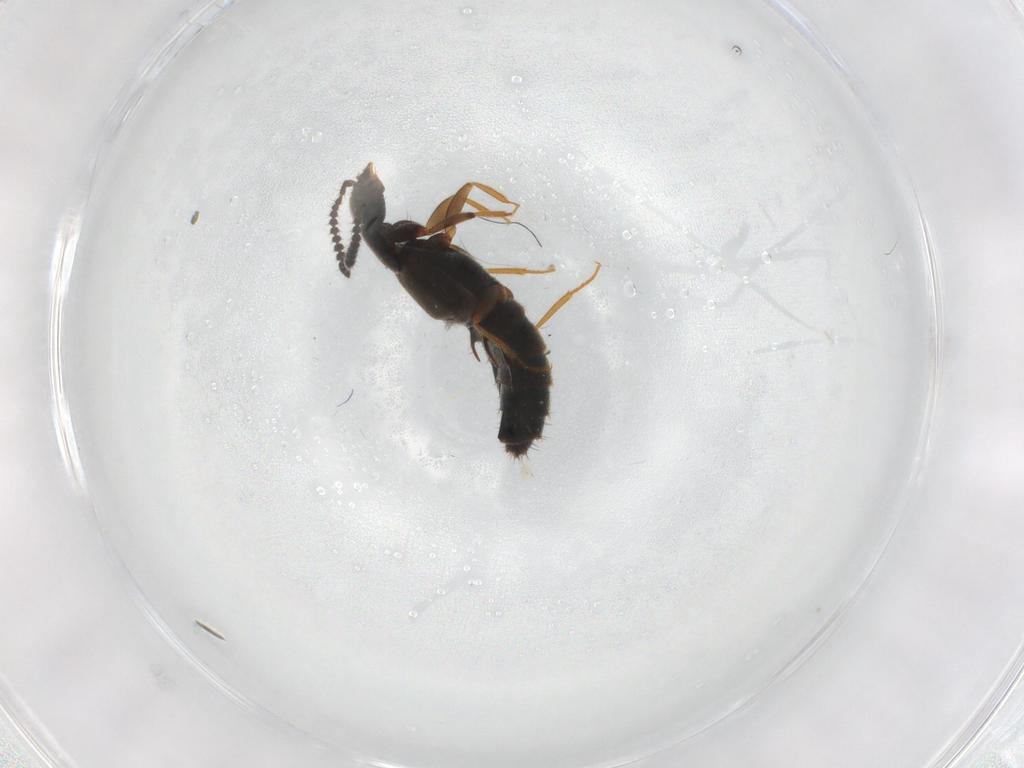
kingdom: Animalia
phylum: Arthropoda
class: Insecta
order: Coleoptera
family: Staphylinidae
